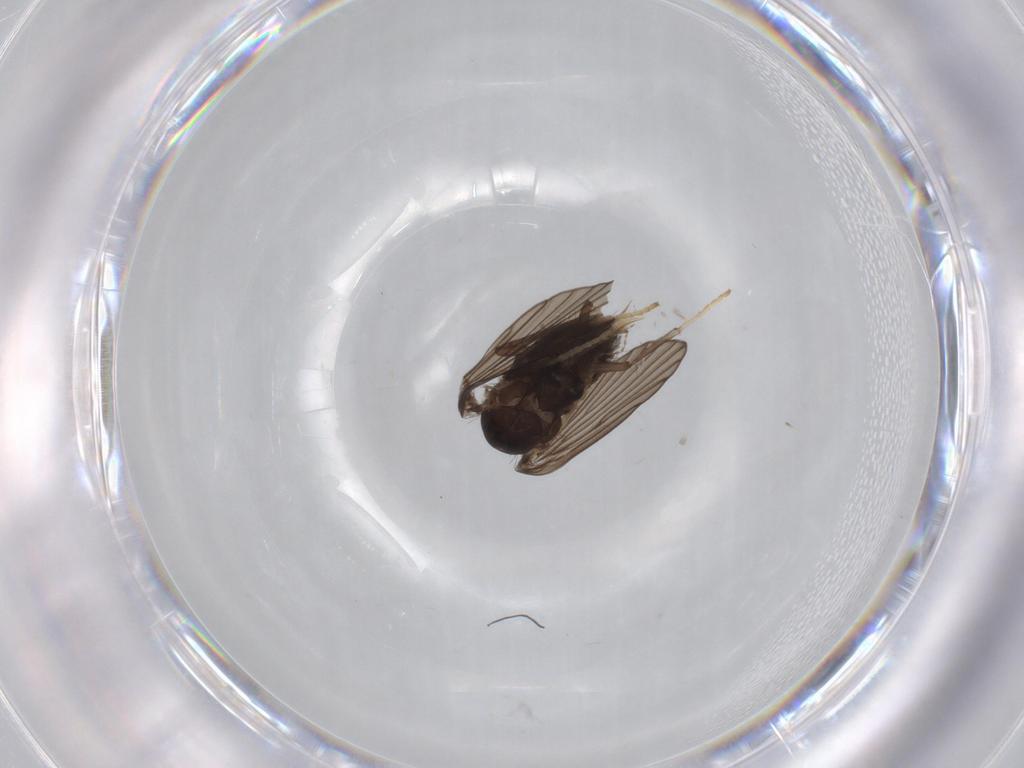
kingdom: Animalia
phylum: Arthropoda
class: Insecta
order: Diptera
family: Psychodidae
